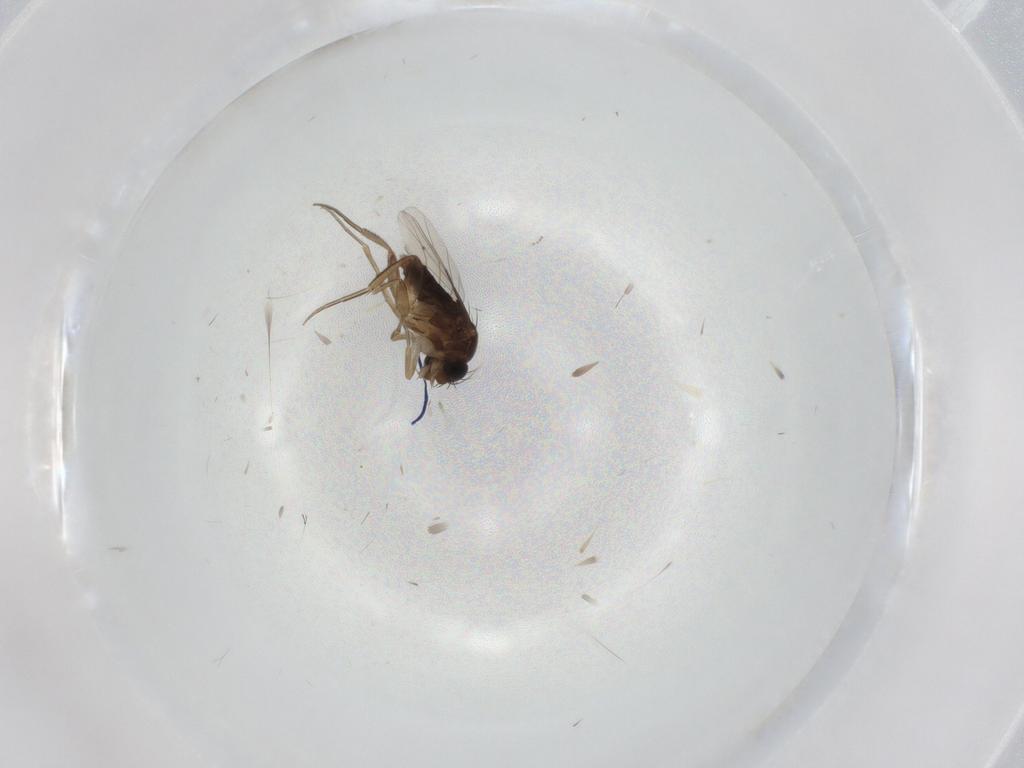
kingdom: Animalia
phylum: Arthropoda
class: Insecta
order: Diptera
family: Phoridae
